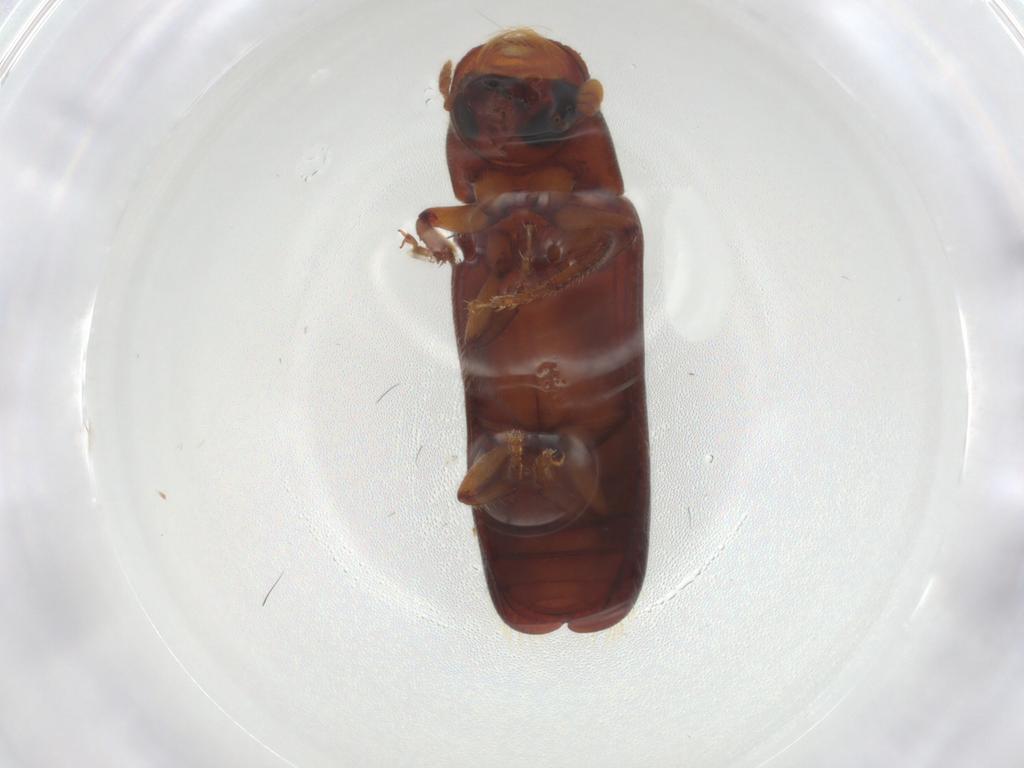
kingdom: Animalia
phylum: Arthropoda
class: Insecta
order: Coleoptera
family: Curculionidae
